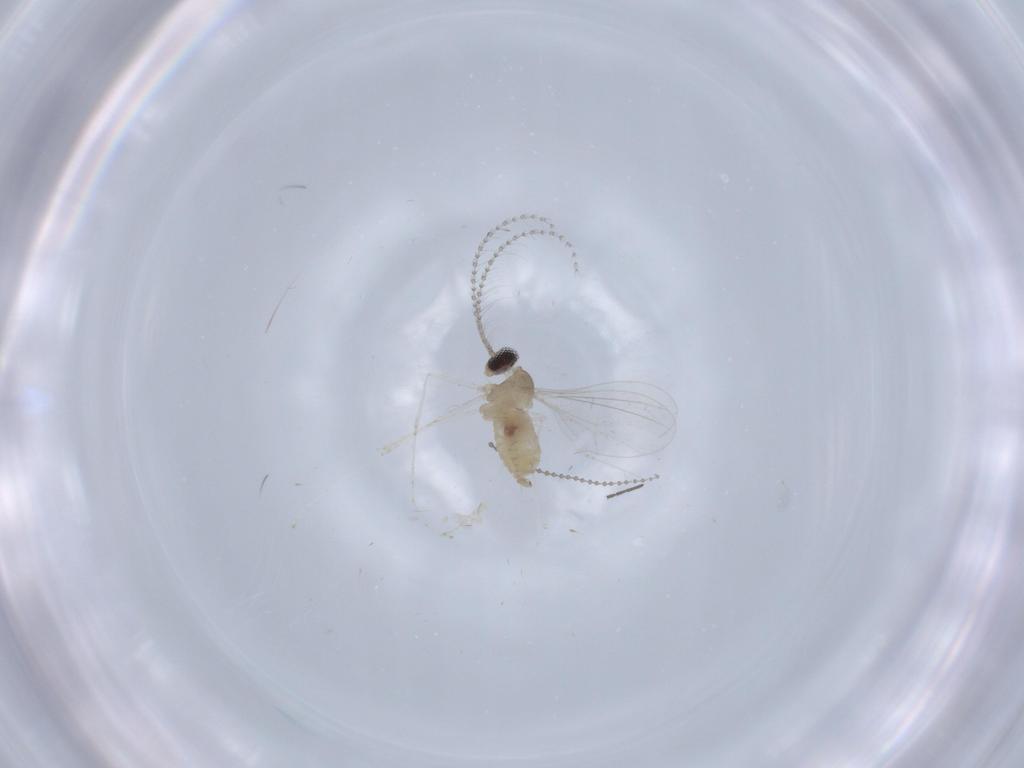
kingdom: Animalia
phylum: Arthropoda
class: Insecta
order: Diptera
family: Cecidomyiidae
